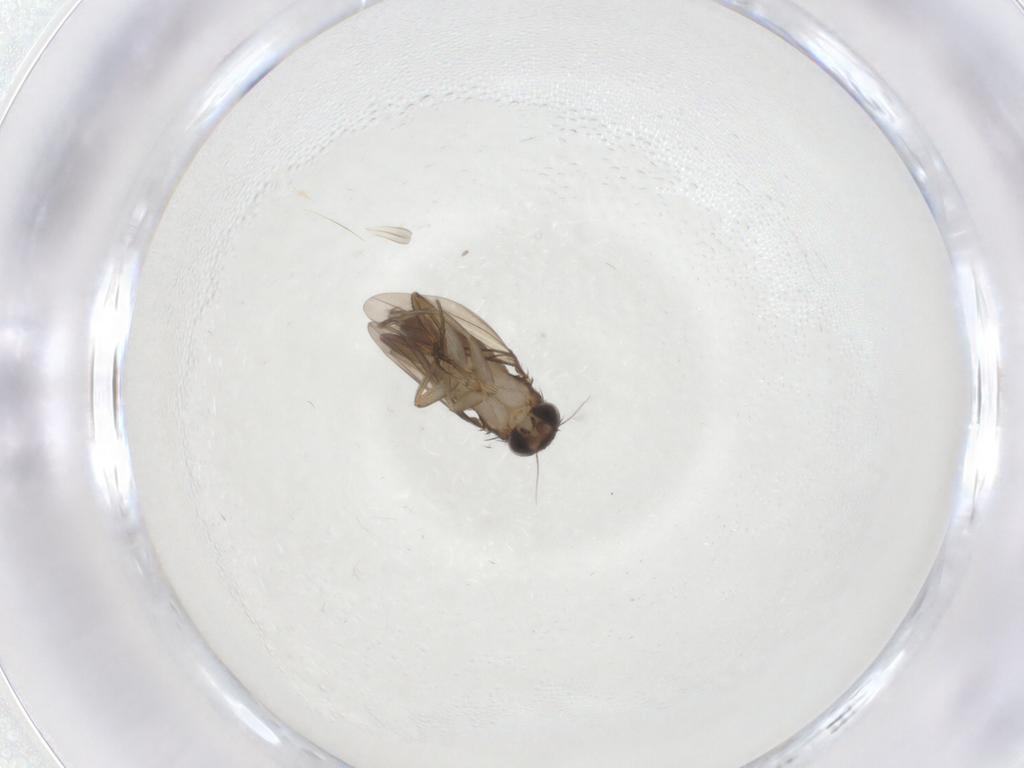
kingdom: Animalia
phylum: Arthropoda
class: Insecta
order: Diptera
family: Phoridae
